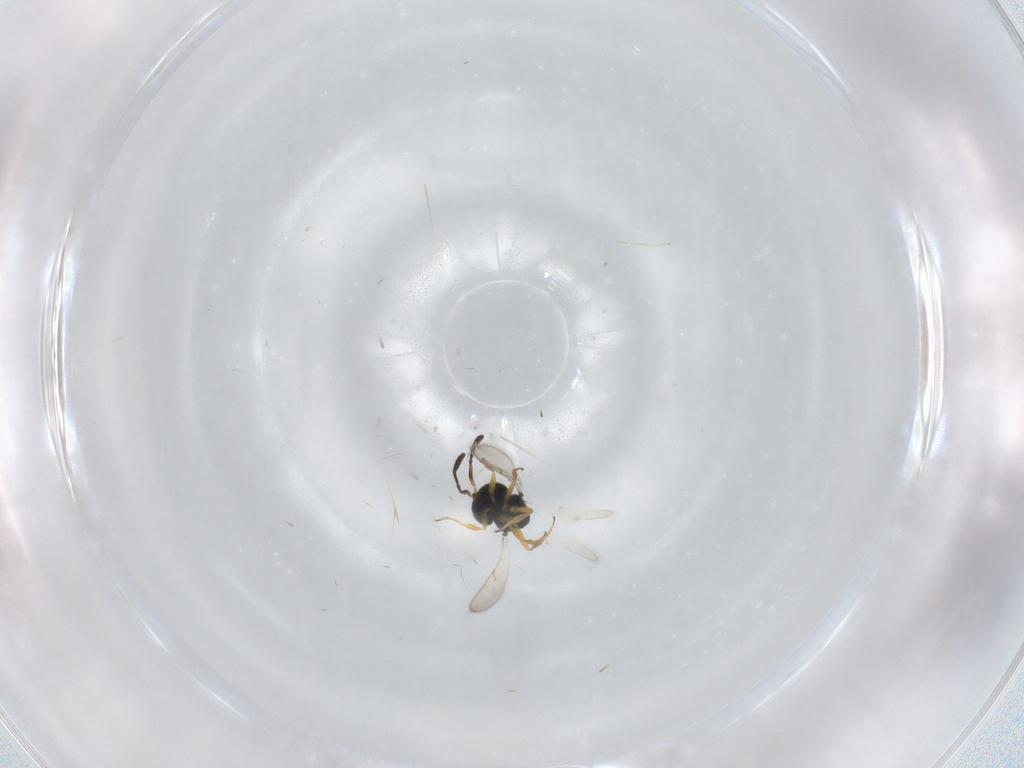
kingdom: Animalia
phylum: Arthropoda
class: Insecta
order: Hymenoptera
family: Scelionidae
